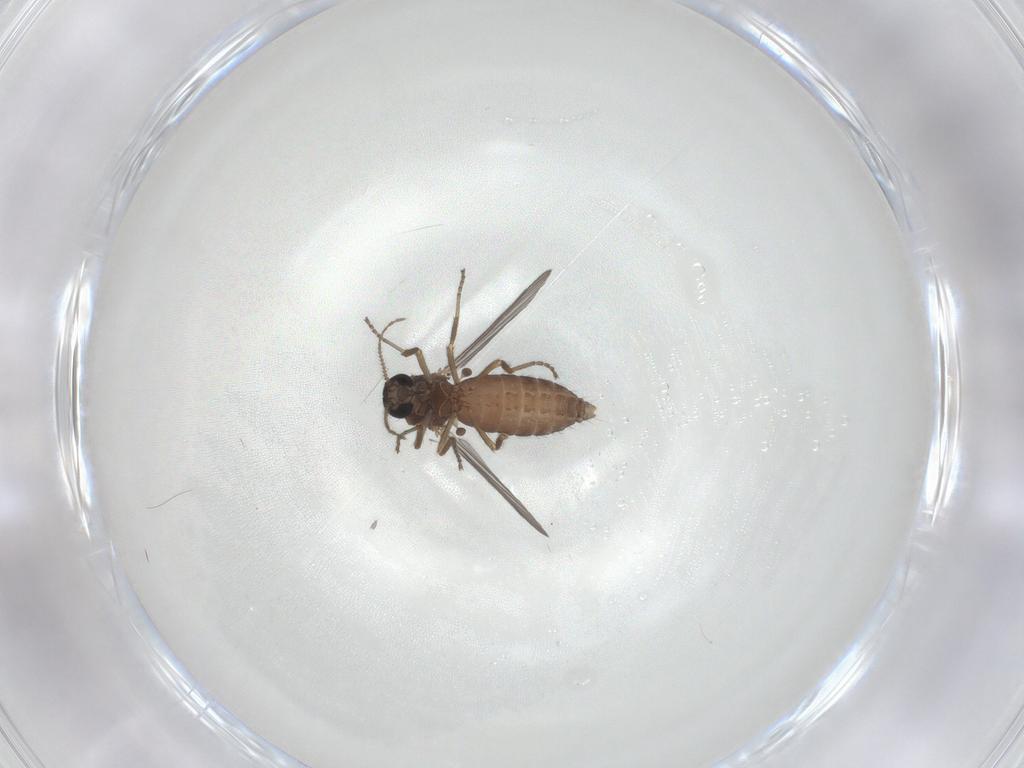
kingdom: Animalia
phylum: Arthropoda
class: Insecta
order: Diptera
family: Ceratopogonidae
